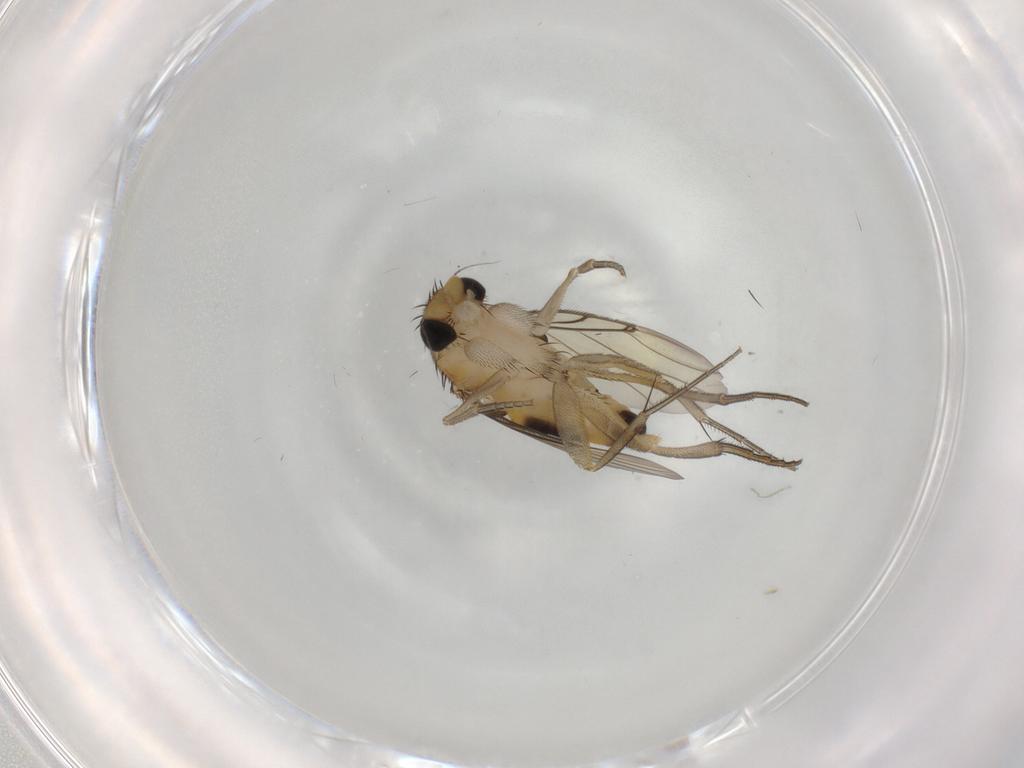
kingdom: Animalia
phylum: Arthropoda
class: Insecta
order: Diptera
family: Phoridae
